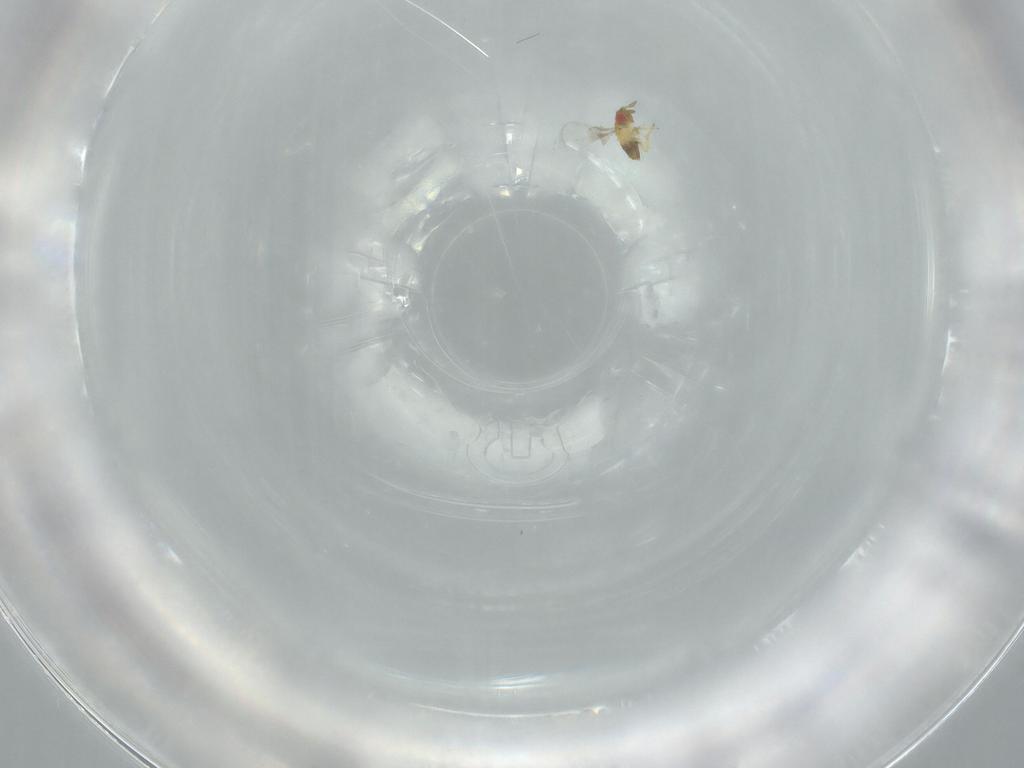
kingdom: Animalia
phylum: Arthropoda
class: Insecta
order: Hymenoptera
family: Trichogrammatidae
